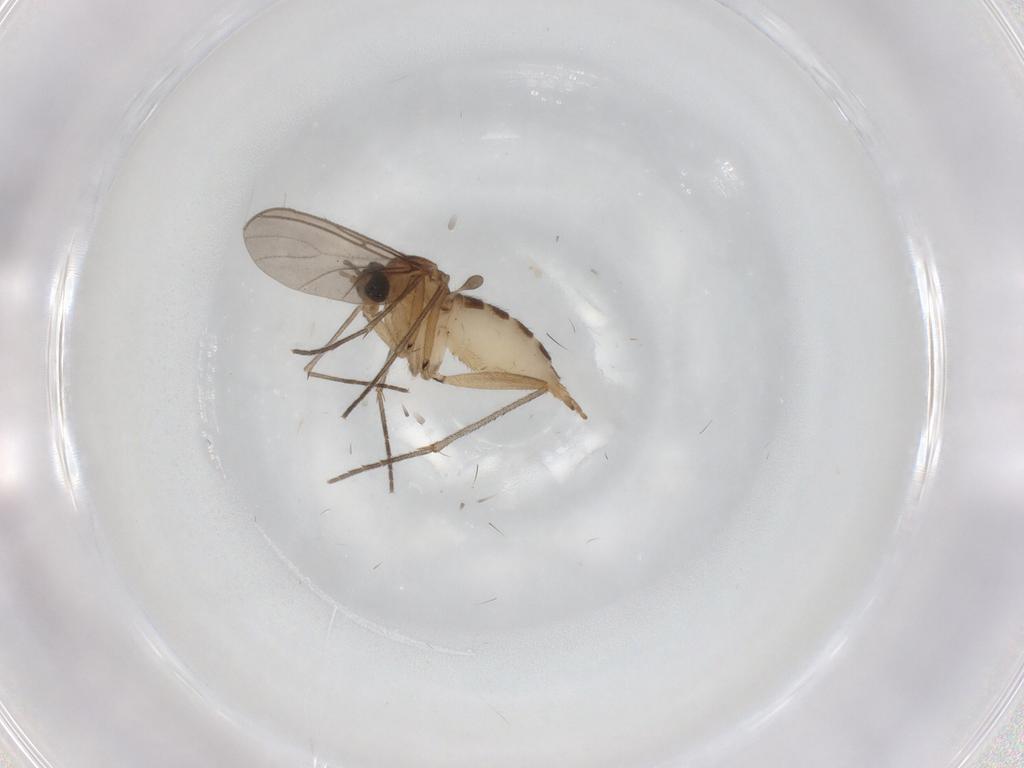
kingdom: Animalia
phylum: Arthropoda
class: Insecta
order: Diptera
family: Sciaridae
